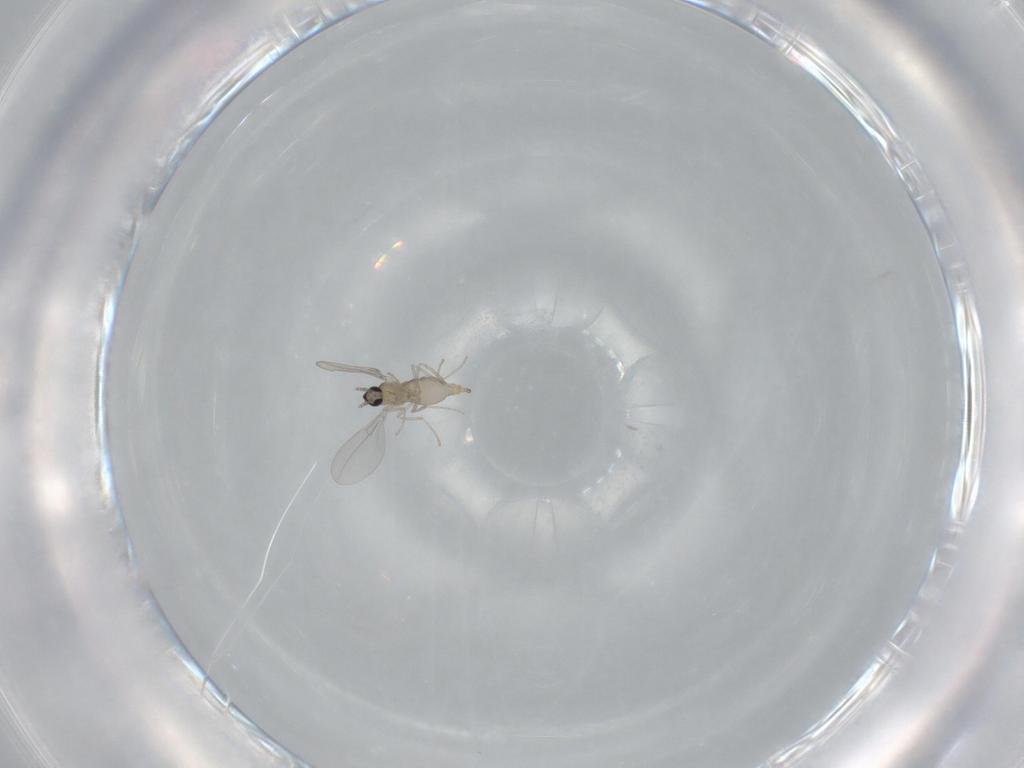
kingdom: Animalia
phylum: Arthropoda
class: Insecta
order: Diptera
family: Cecidomyiidae
